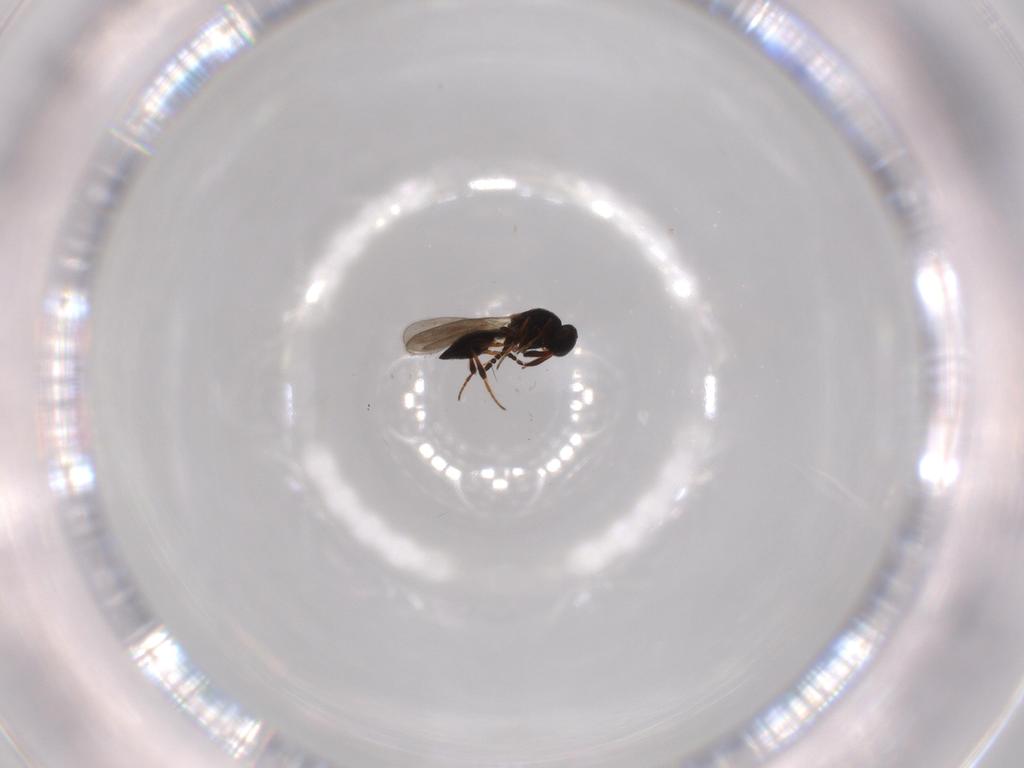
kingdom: Animalia
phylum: Arthropoda
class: Insecta
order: Hymenoptera
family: Platygastridae
